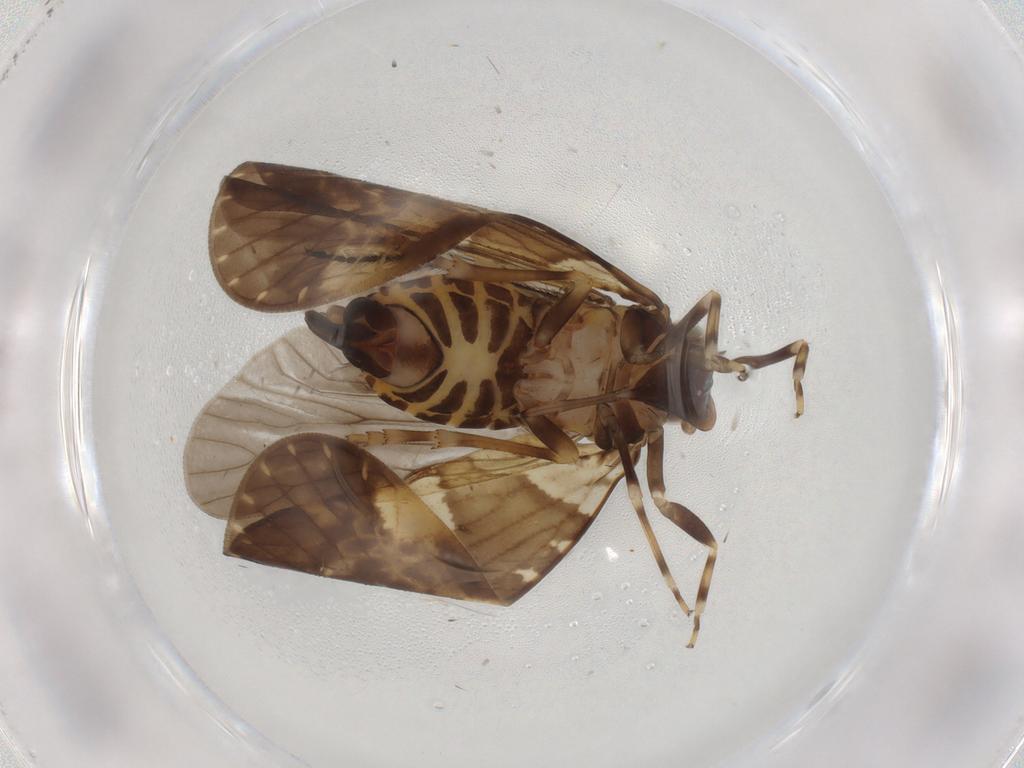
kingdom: Animalia
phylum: Arthropoda
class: Insecta
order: Hemiptera
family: Cixiidae
